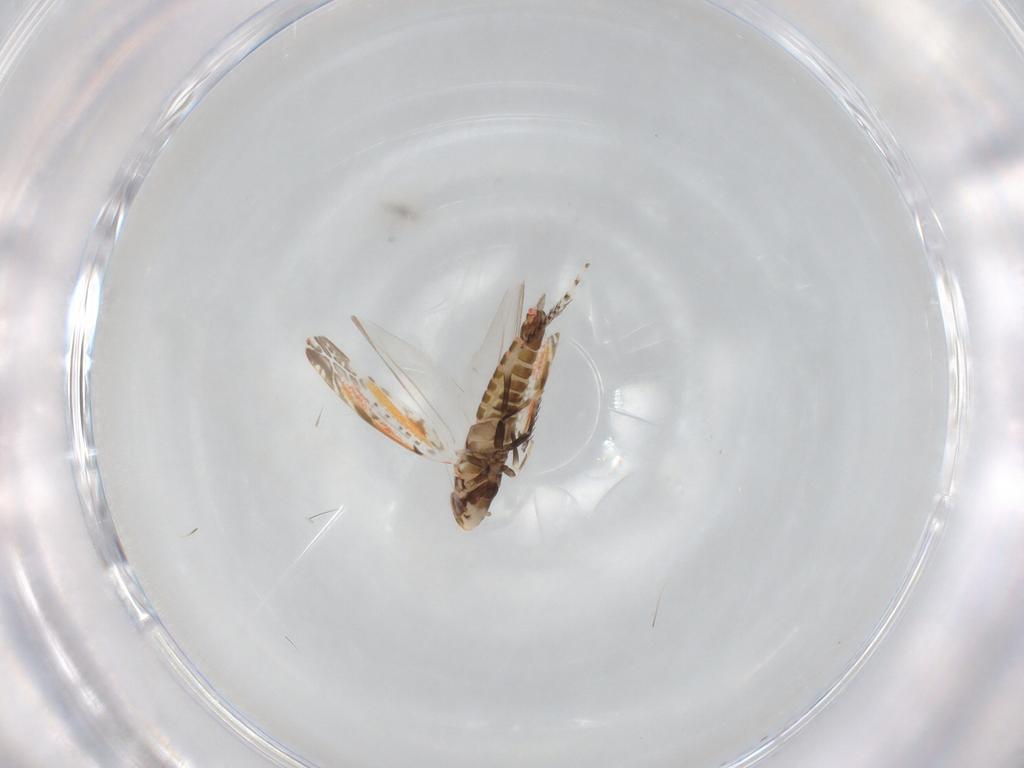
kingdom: Animalia
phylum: Arthropoda
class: Insecta
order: Hemiptera
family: Cicadellidae
